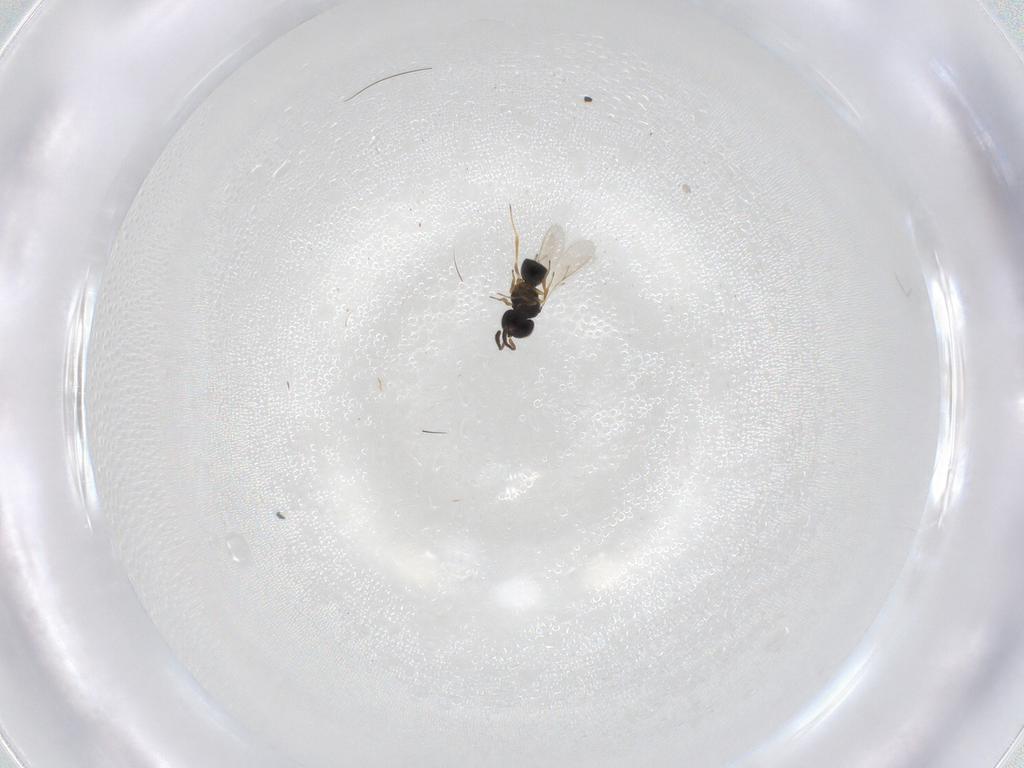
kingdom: Animalia
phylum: Arthropoda
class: Insecta
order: Hymenoptera
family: Scelionidae
